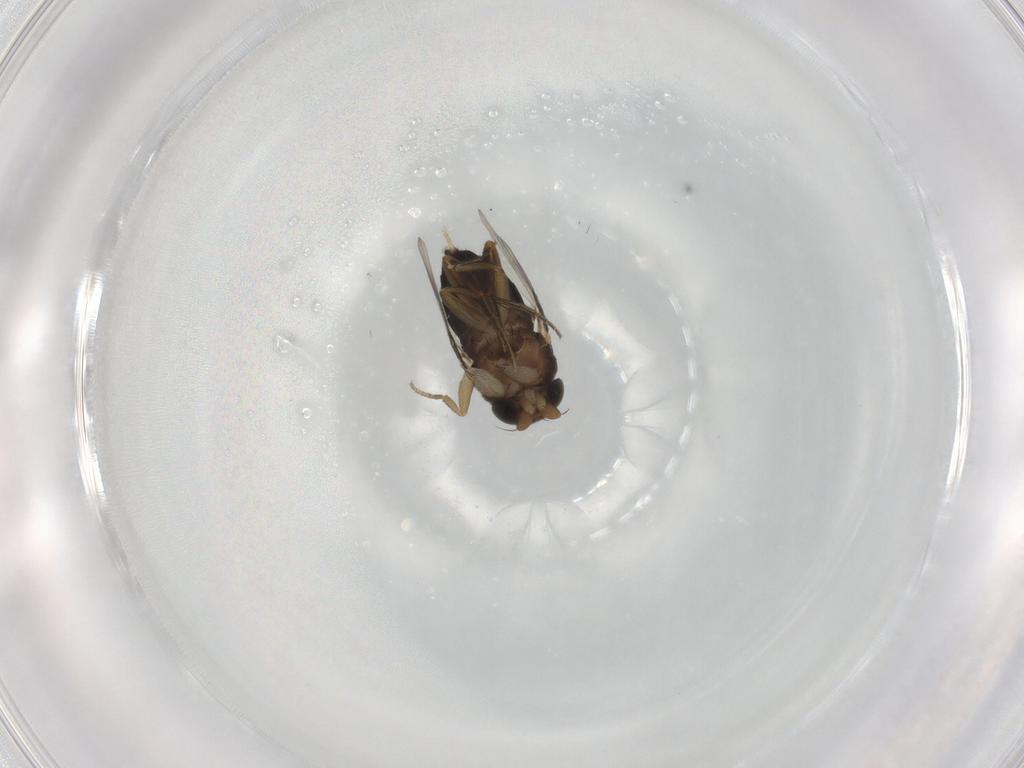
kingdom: Animalia
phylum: Arthropoda
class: Insecta
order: Diptera
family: Phoridae
